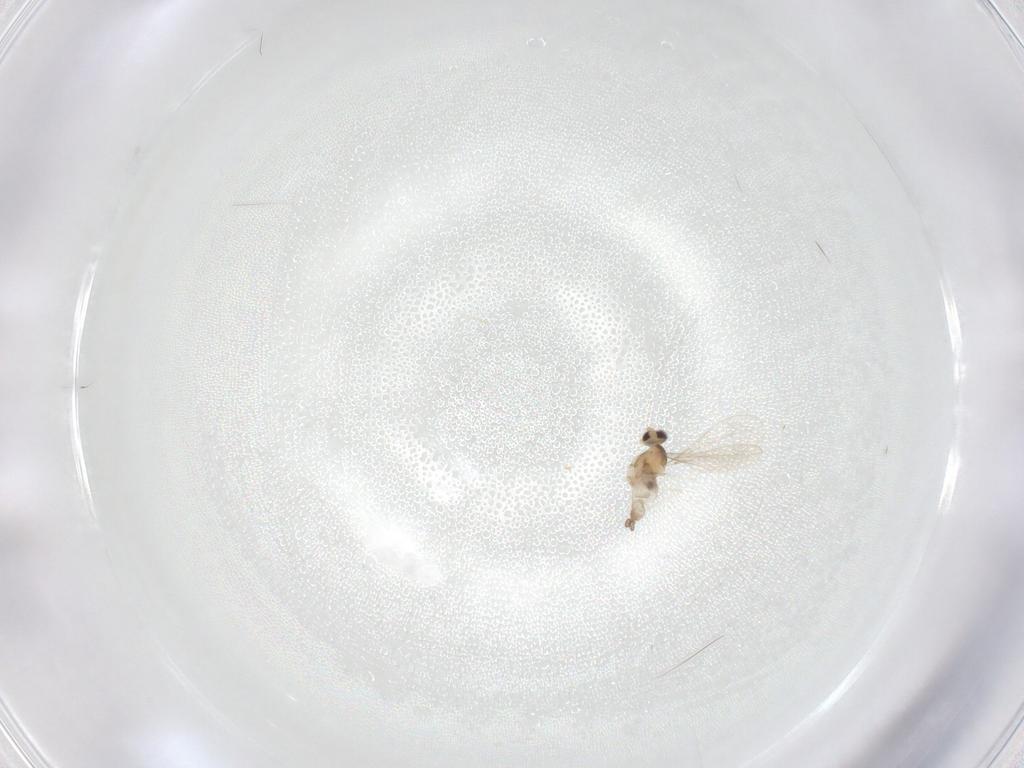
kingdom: Animalia
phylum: Arthropoda
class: Insecta
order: Diptera
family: Cecidomyiidae
